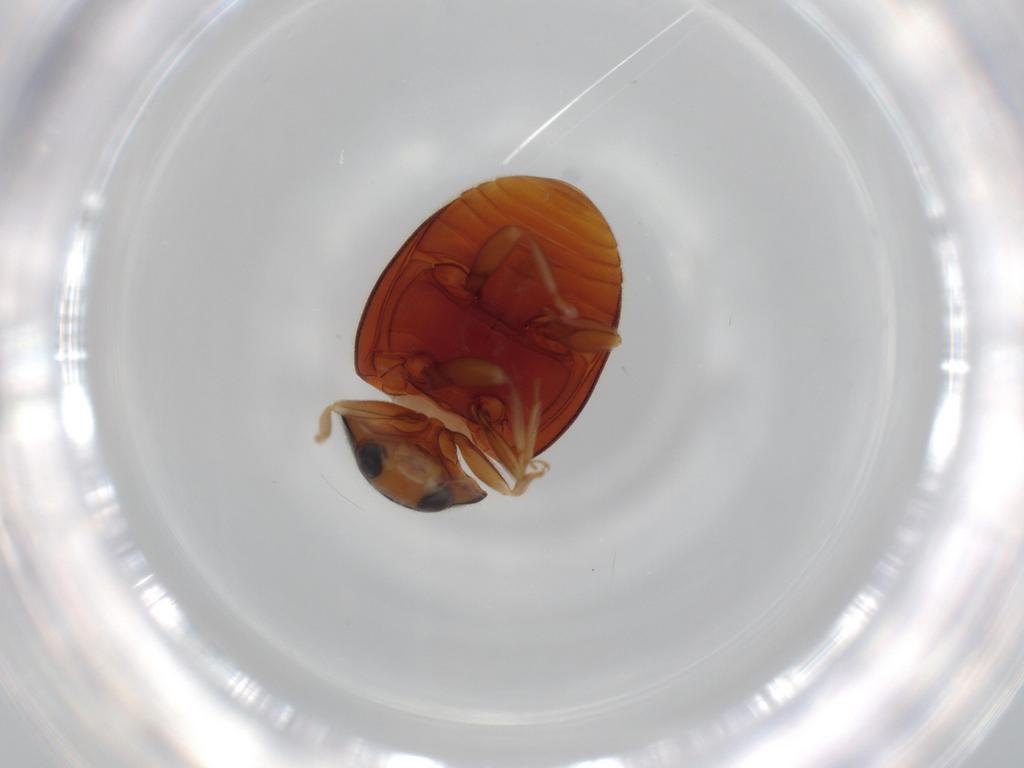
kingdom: Animalia
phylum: Arthropoda
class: Insecta
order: Coleoptera
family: Coccinellidae
